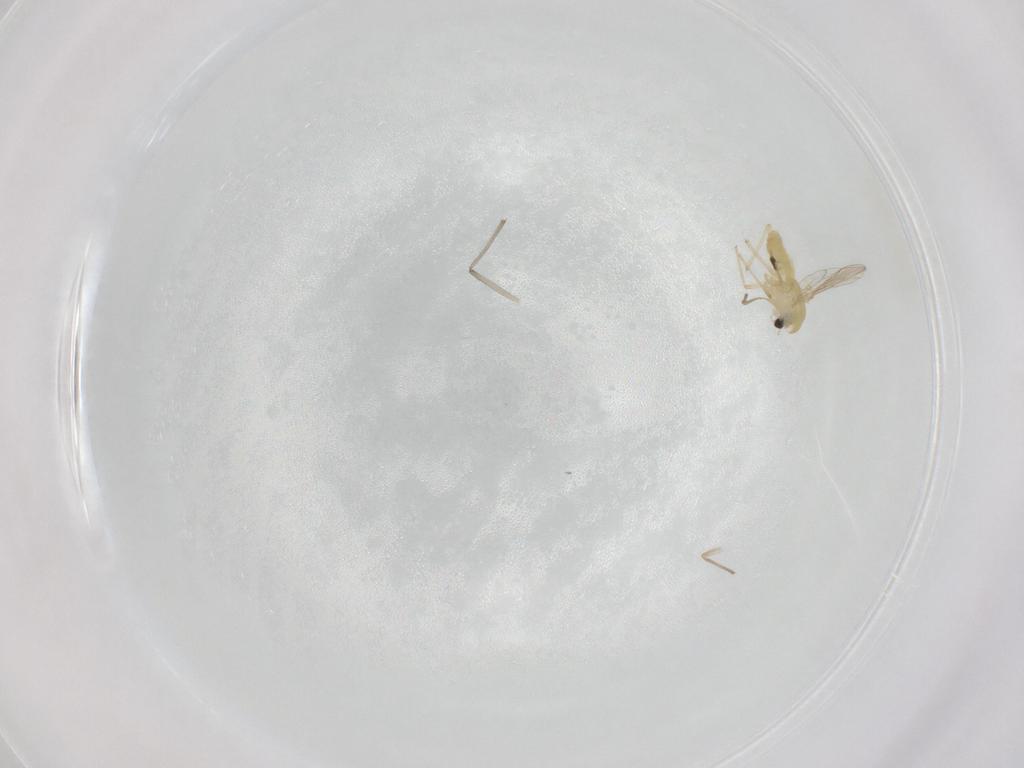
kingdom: Animalia
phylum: Arthropoda
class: Insecta
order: Diptera
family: Chironomidae
